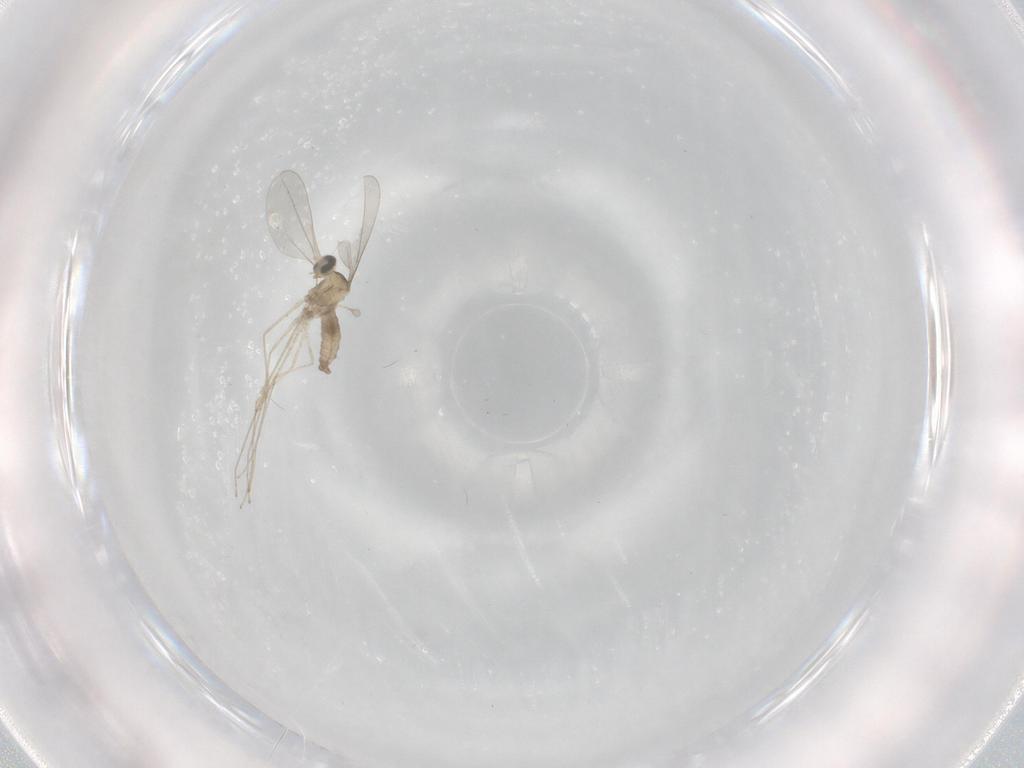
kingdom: Animalia
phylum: Arthropoda
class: Insecta
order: Diptera
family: Cecidomyiidae
